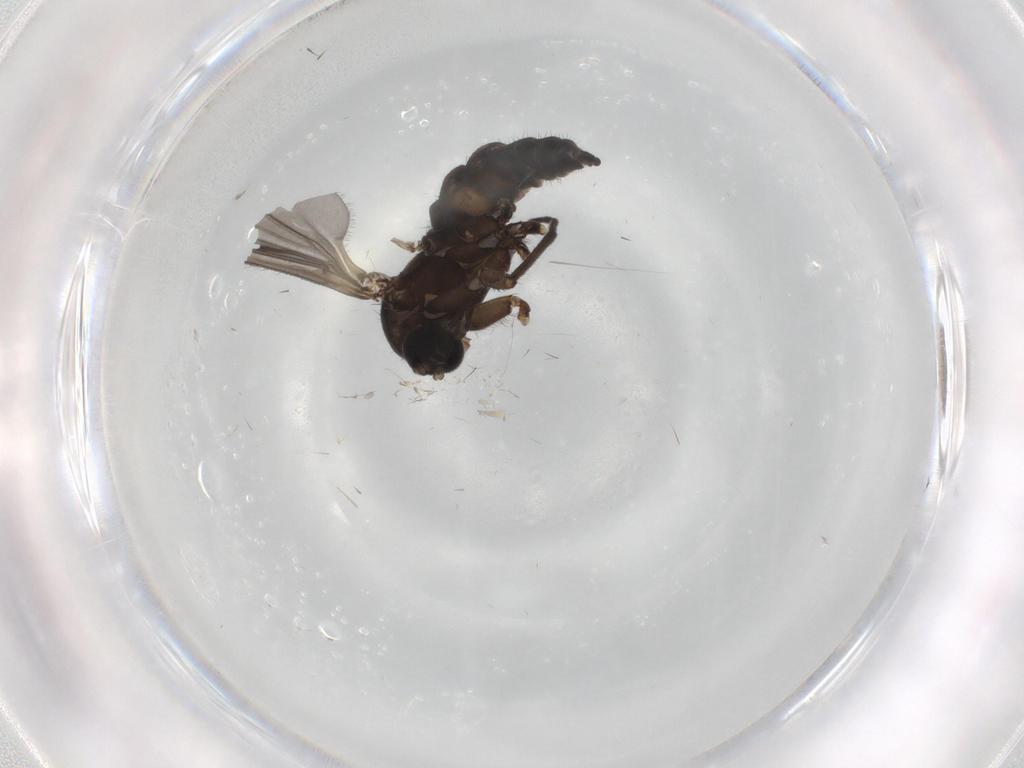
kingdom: Animalia
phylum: Arthropoda
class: Insecta
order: Diptera
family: Sciaridae
